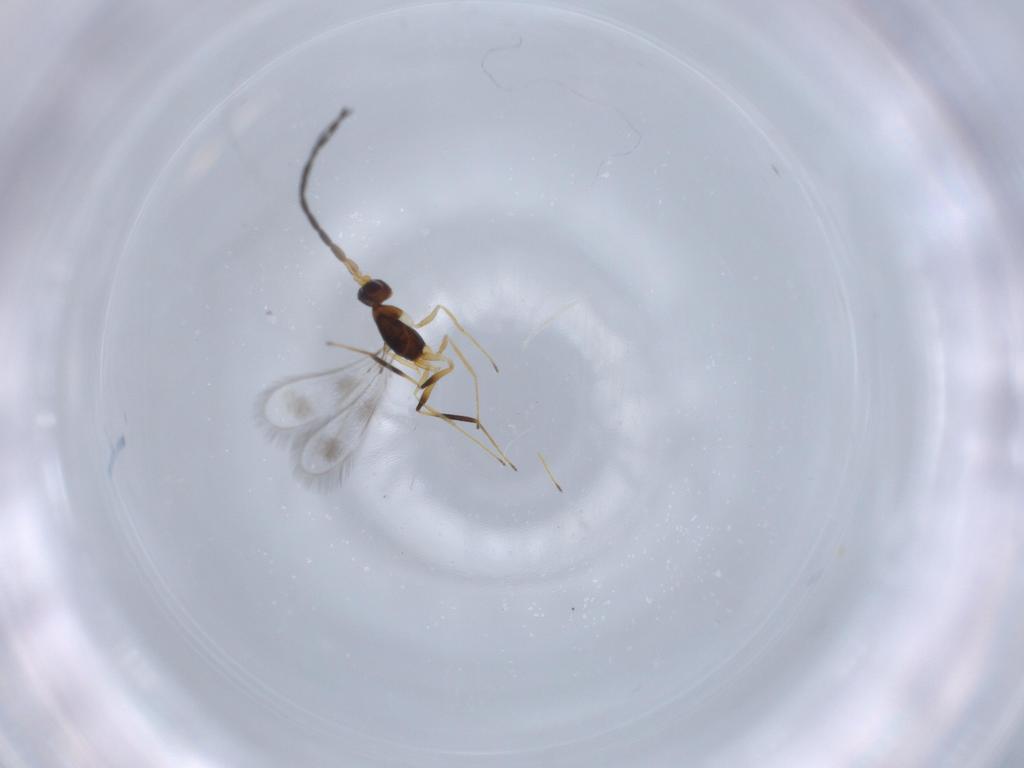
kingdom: Animalia
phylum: Arthropoda
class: Insecta
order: Hymenoptera
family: Mymaridae
